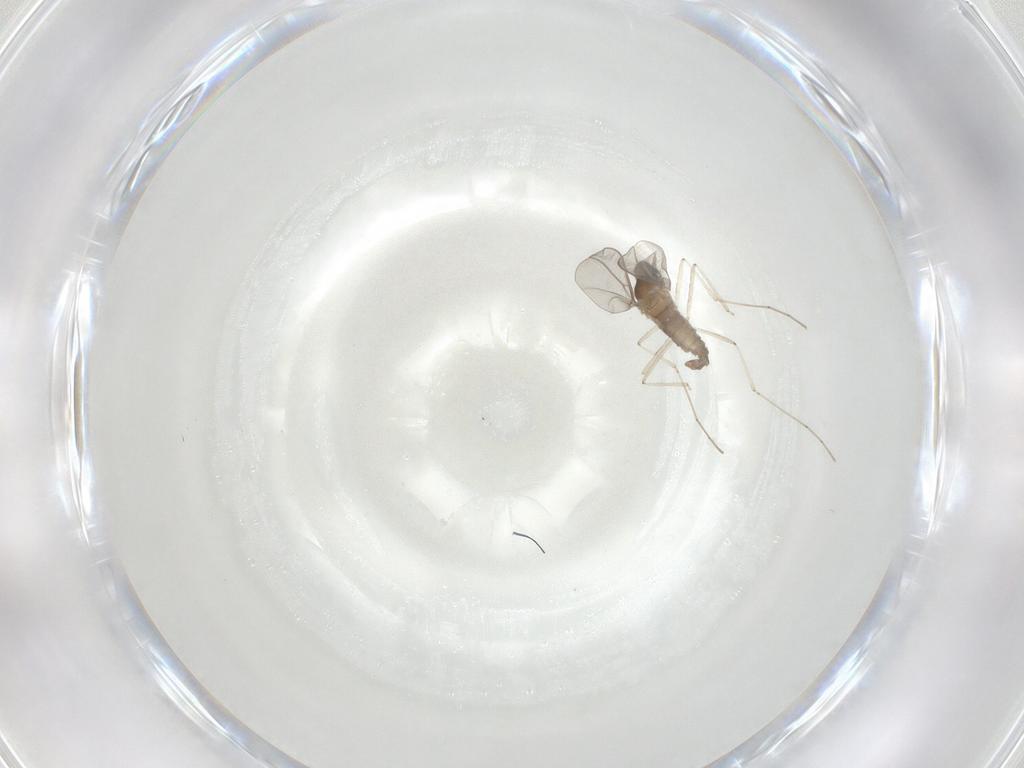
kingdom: Animalia
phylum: Arthropoda
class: Insecta
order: Diptera
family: Cecidomyiidae
